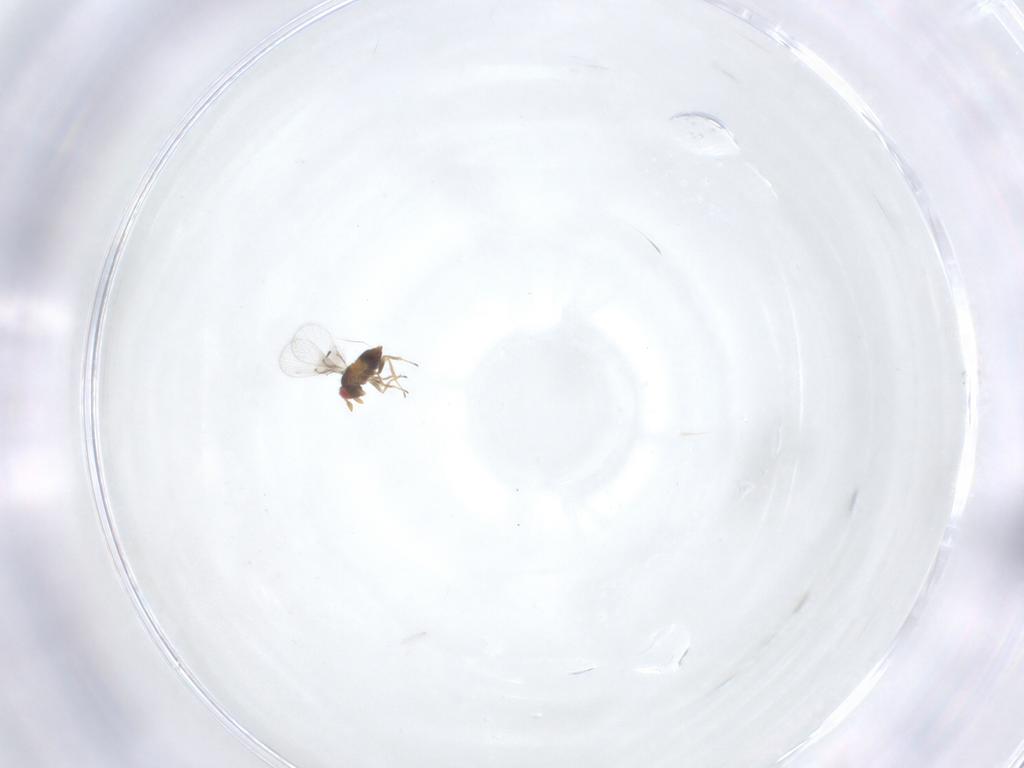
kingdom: Animalia
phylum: Arthropoda
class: Insecta
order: Hymenoptera
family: Trichogrammatidae
